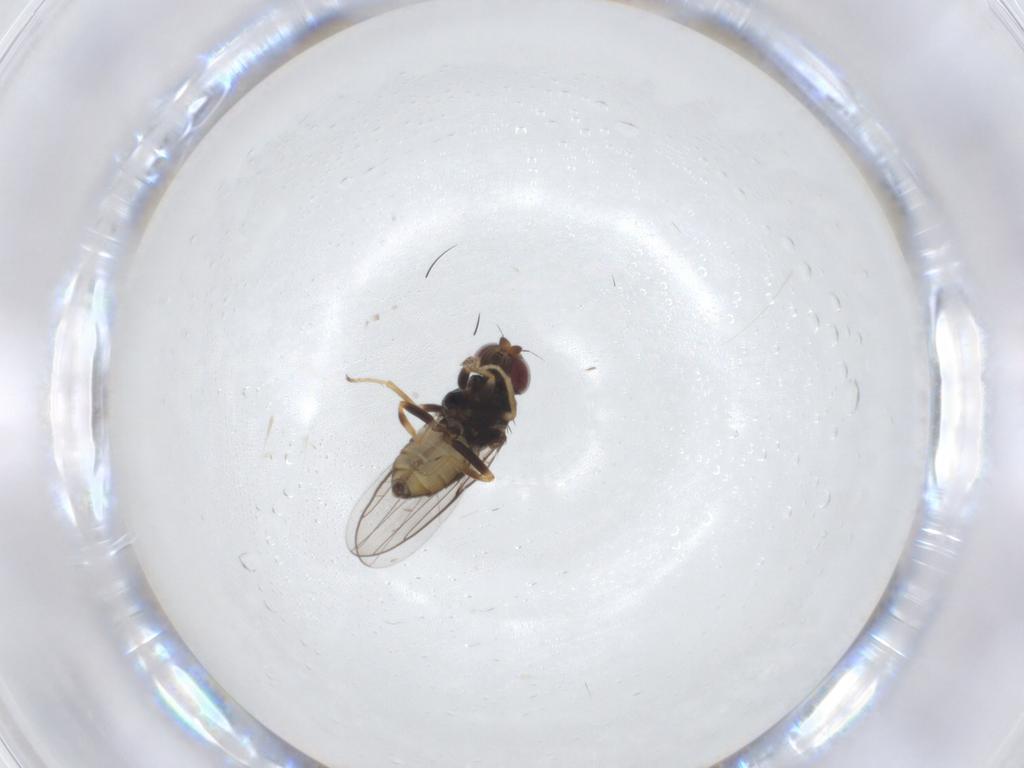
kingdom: Animalia
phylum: Arthropoda
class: Insecta
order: Diptera
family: Chloropidae
